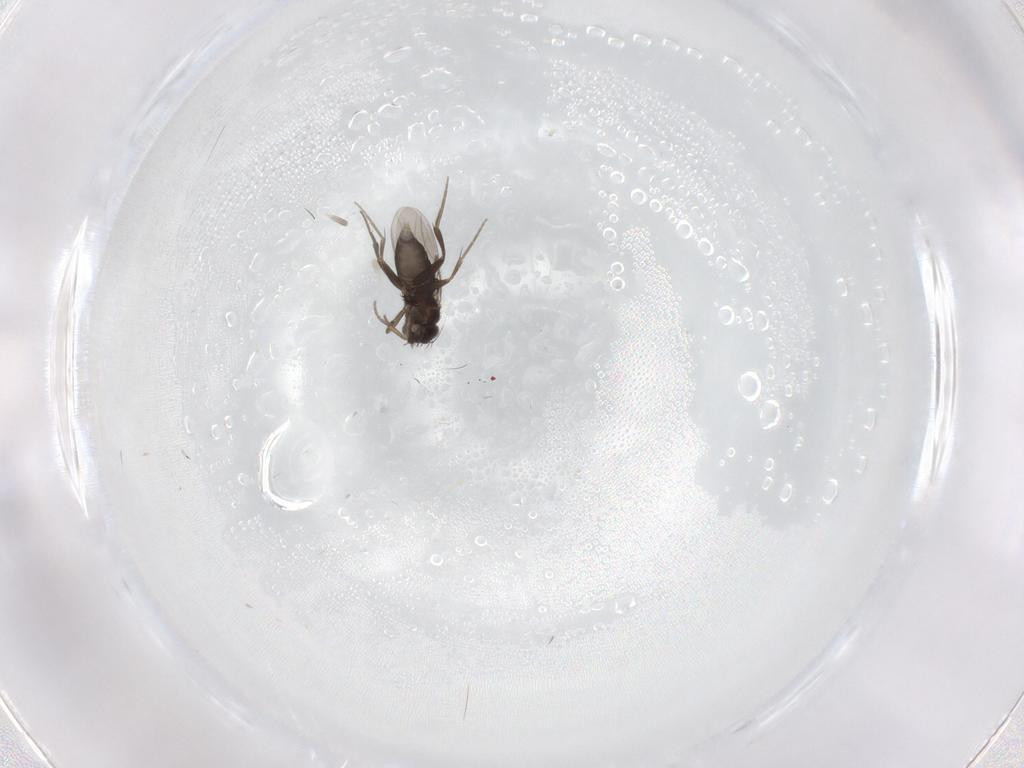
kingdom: Animalia
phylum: Arthropoda
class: Insecta
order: Diptera
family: Phoridae
